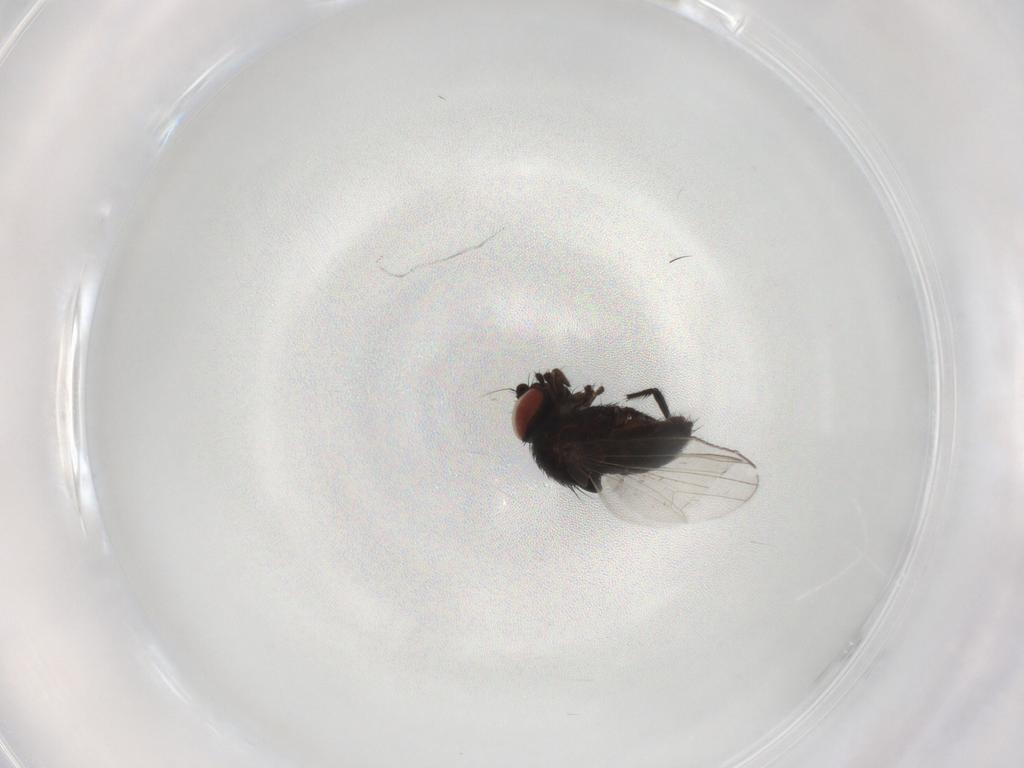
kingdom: Animalia
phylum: Arthropoda
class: Insecta
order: Diptera
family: Milichiidae
